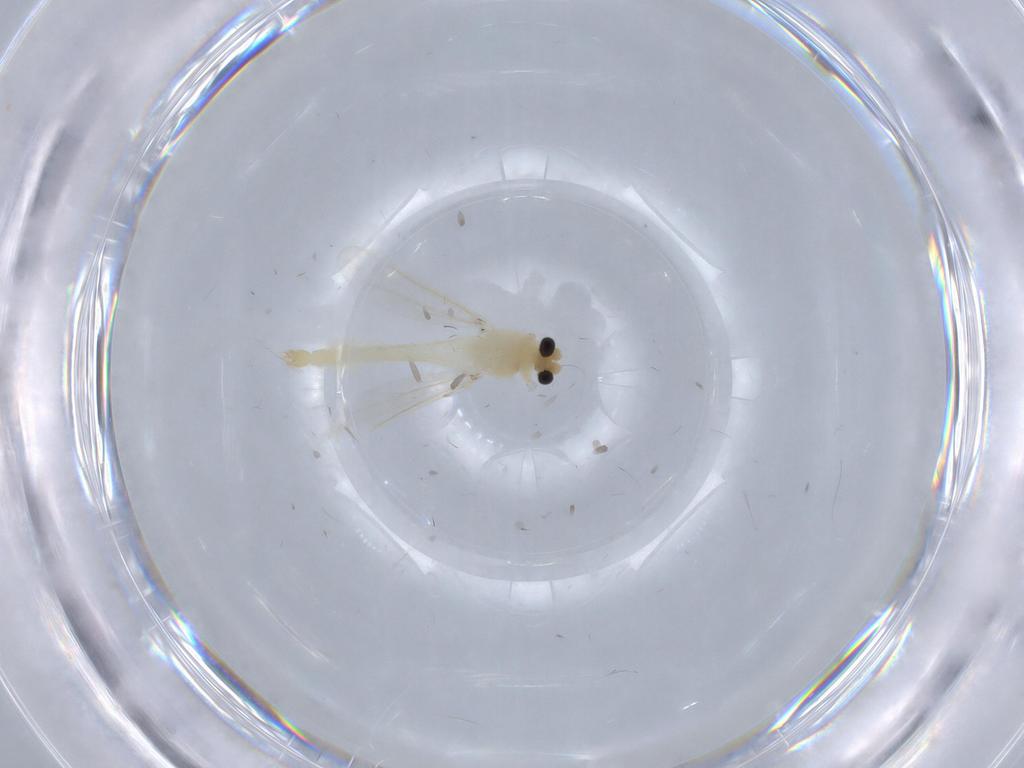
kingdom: Animalia
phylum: Arthropoda
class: Insecta
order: Diptera
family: Chironomidae
